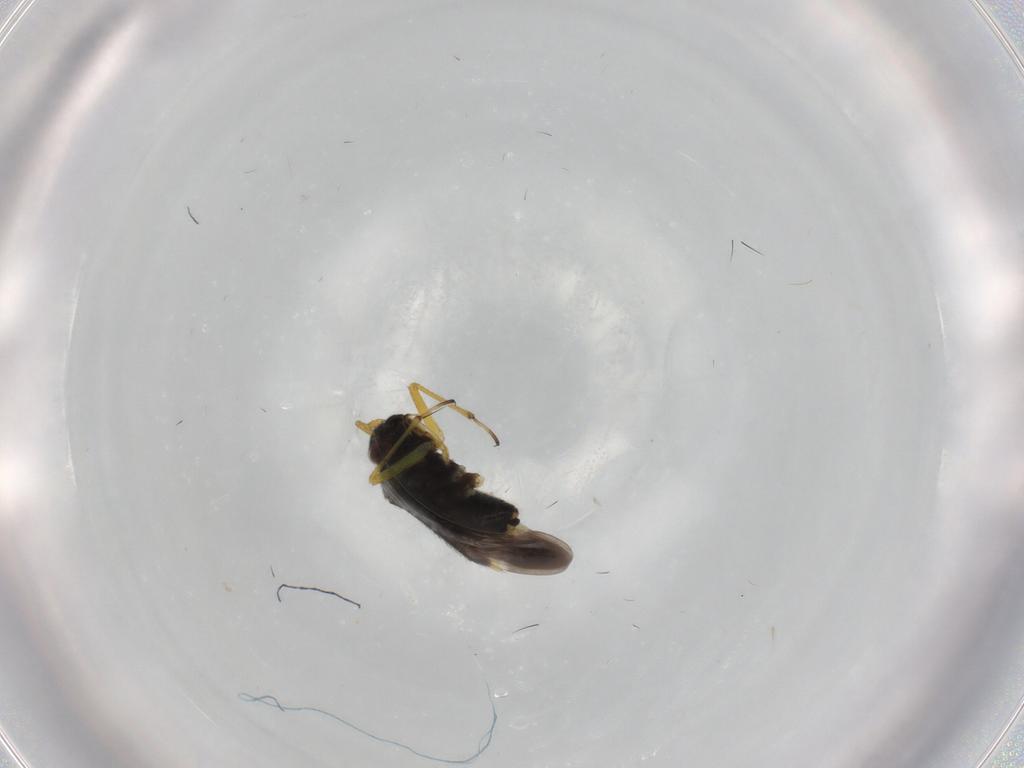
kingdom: Animalia
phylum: Arthropoda
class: Insecta
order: Hemiptera
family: Miridae
